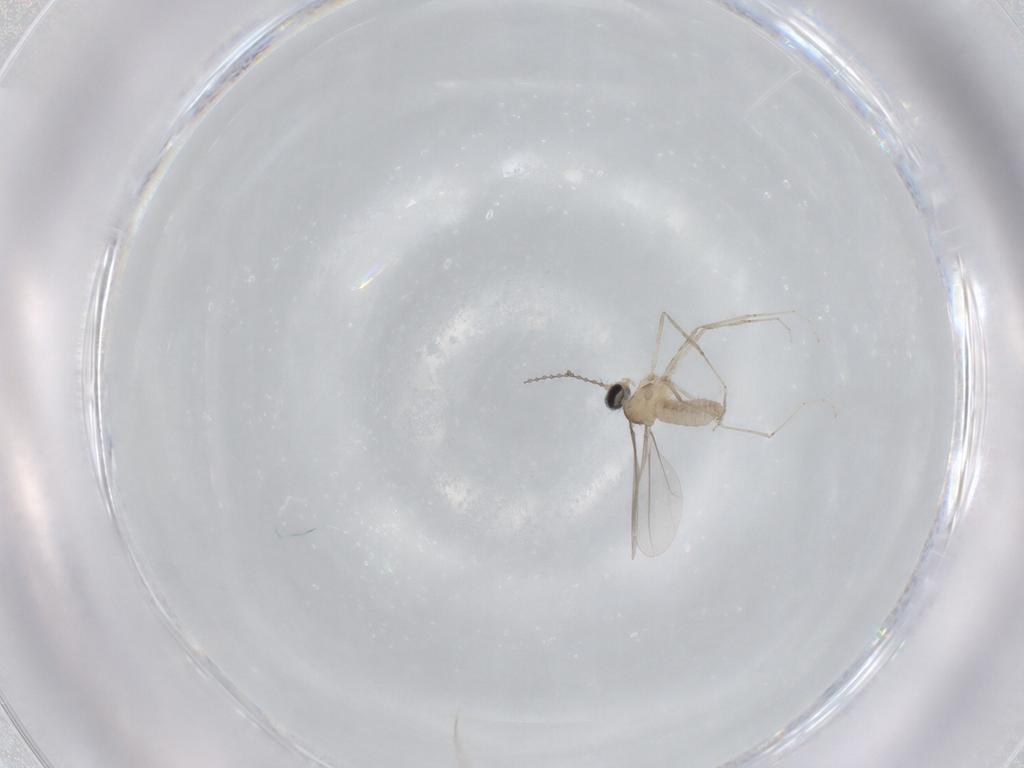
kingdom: Animalia
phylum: Arthropoda
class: Insecta
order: Diptera
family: Cecidomyiidae
